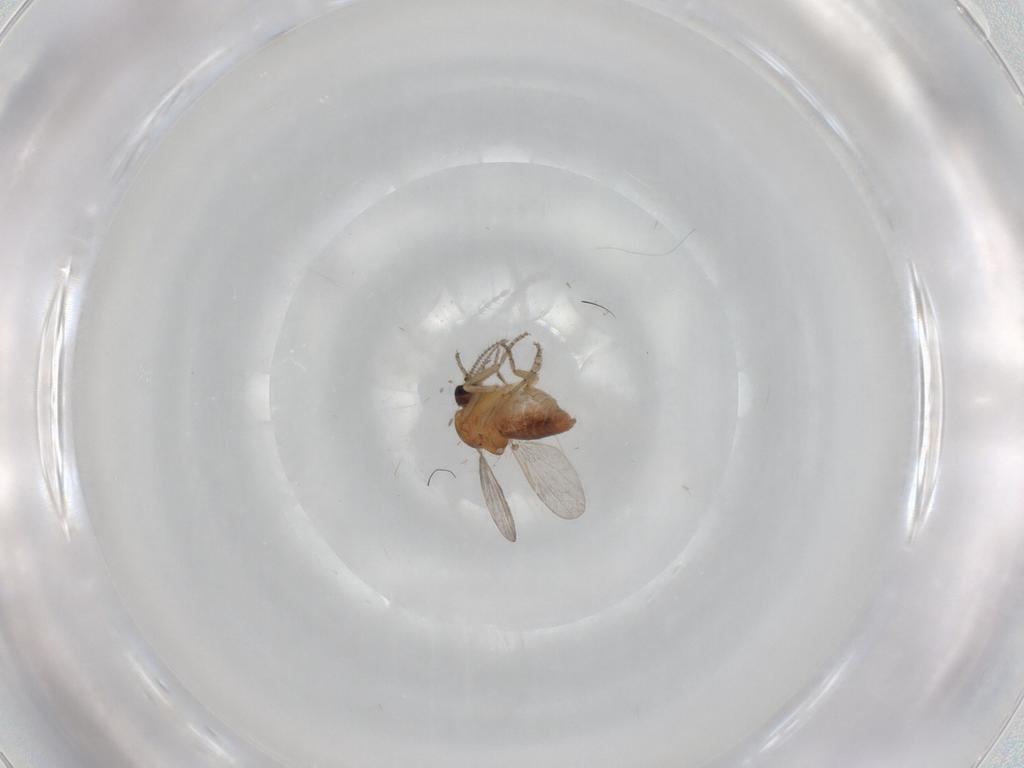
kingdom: Animalia
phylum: Arthropoda
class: Insecta
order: Diptera
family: Ceratopogonidae
